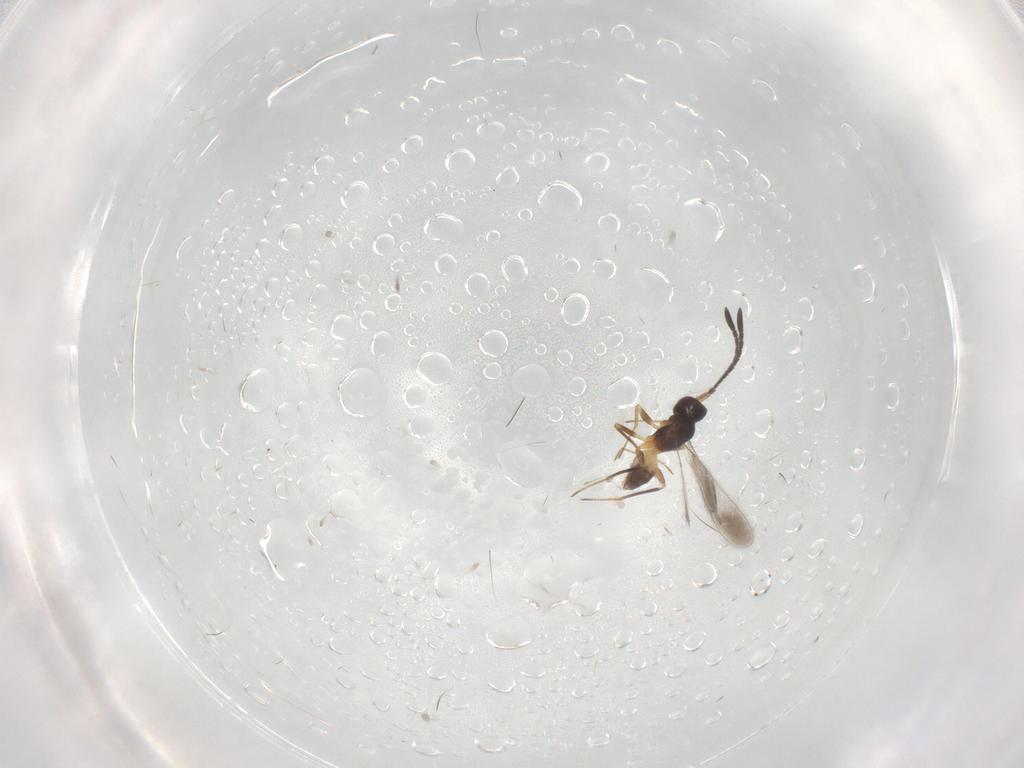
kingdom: Animalia
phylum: Arthropoda
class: Insecta
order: Hymenoptera
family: Mymaridae
